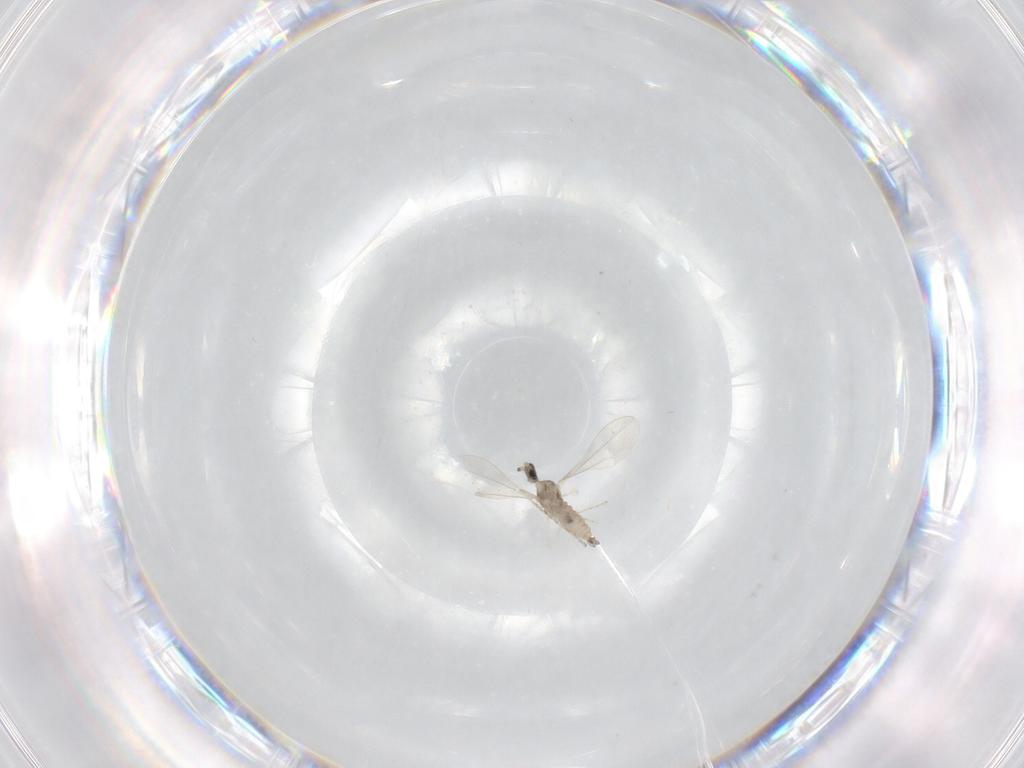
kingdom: Animalia
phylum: Arthropoda
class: Insecta
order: Diptera
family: Cecidomyiidae
